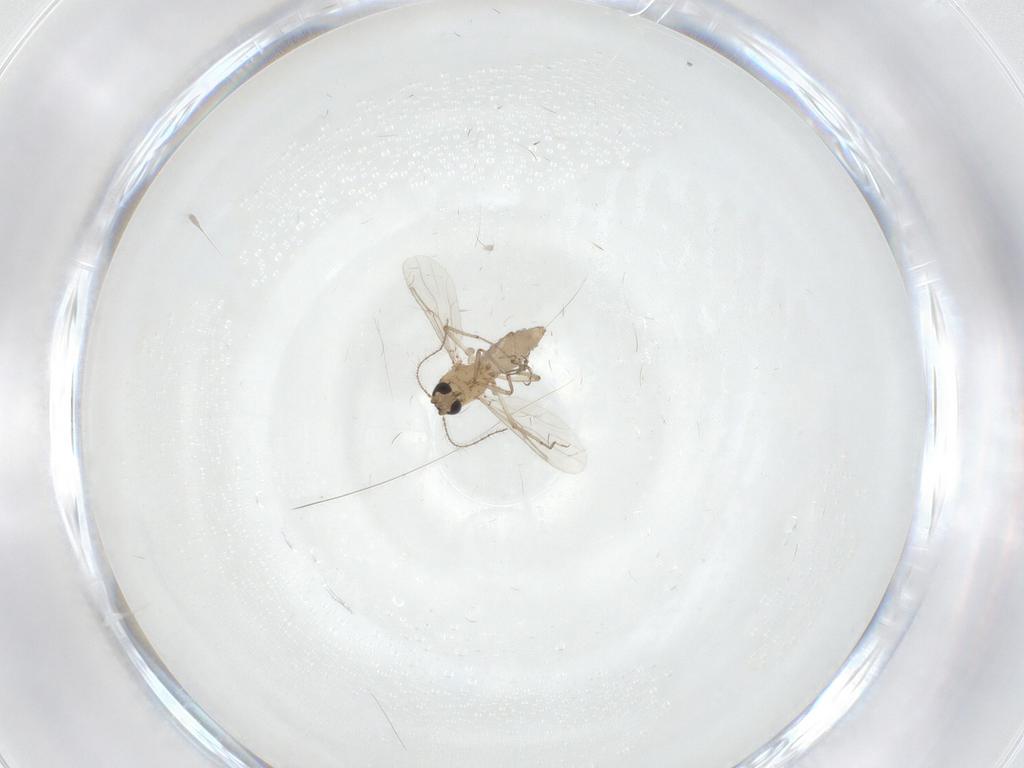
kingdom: Animalia
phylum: Arthropoda
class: Insecta
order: Diptera
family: Ceratopogonidae
